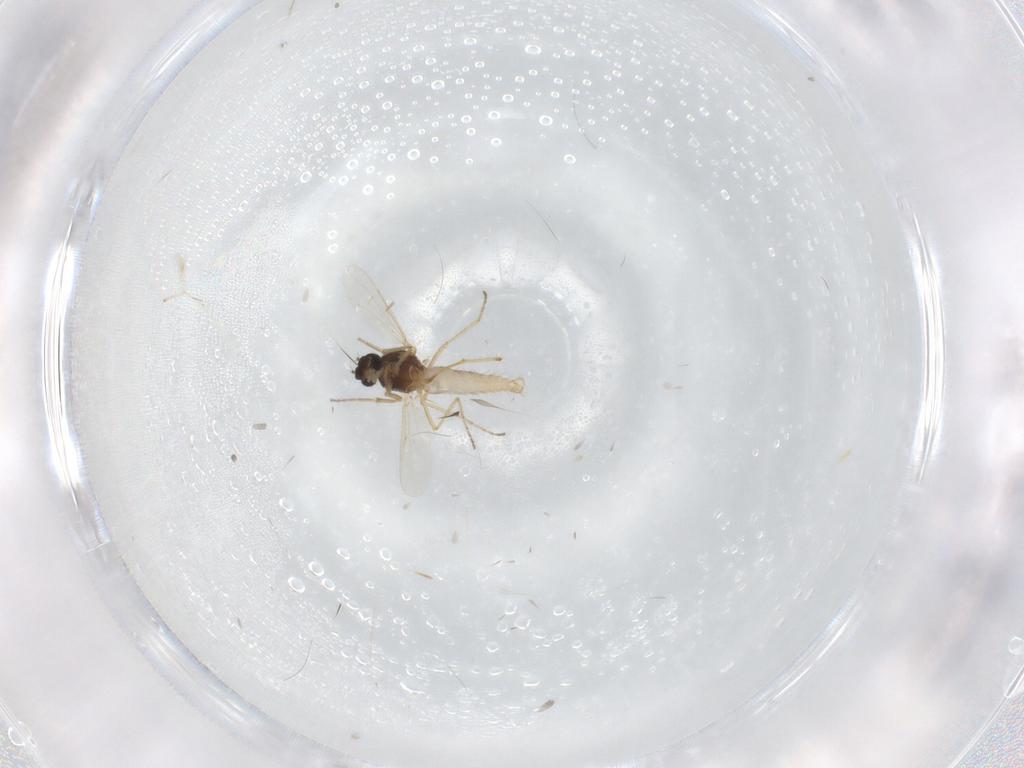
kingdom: Animalia
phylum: Arthropoda
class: Insecta
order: Diptera
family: Ceratopogonidae
